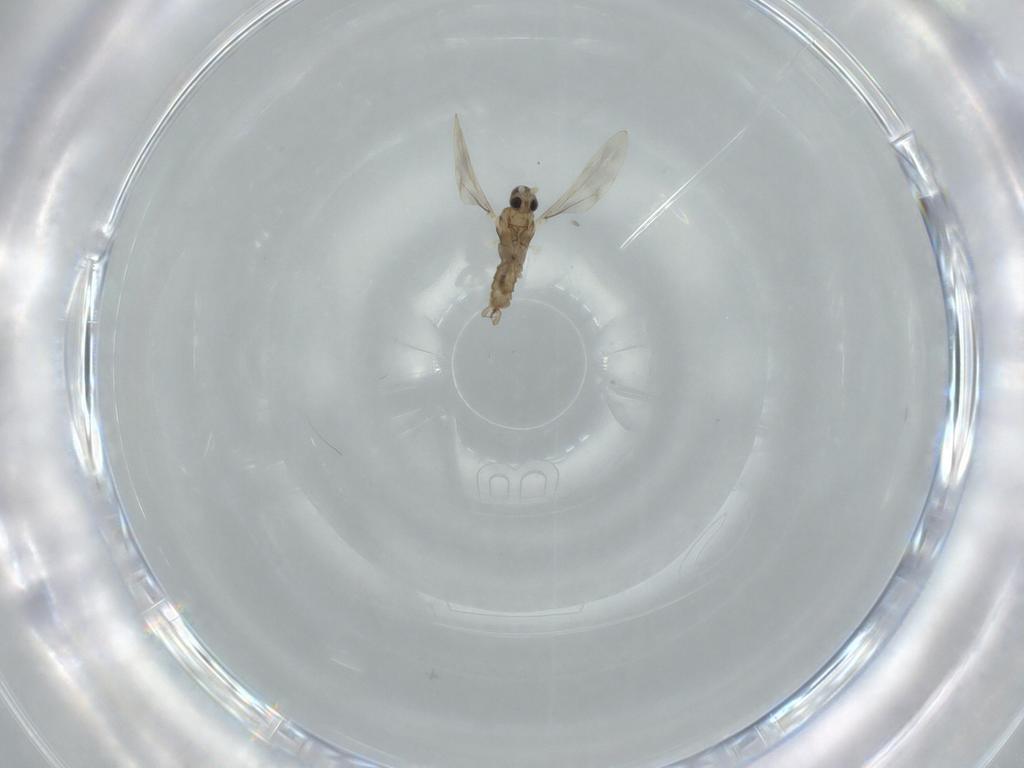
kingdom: Animalia
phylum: Arthropoda
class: Insecta
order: Diptera
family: Cecidomyiidae
